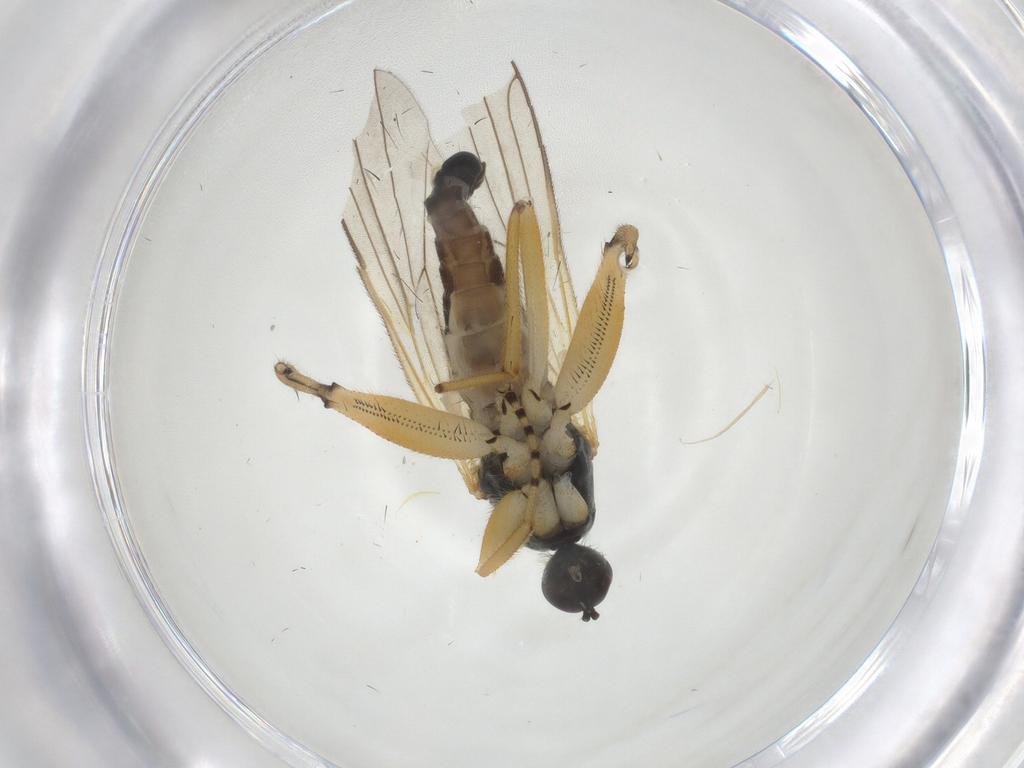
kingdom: Animalia
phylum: Arthropoda
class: Insecta
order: Diptera
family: Hybotidae
